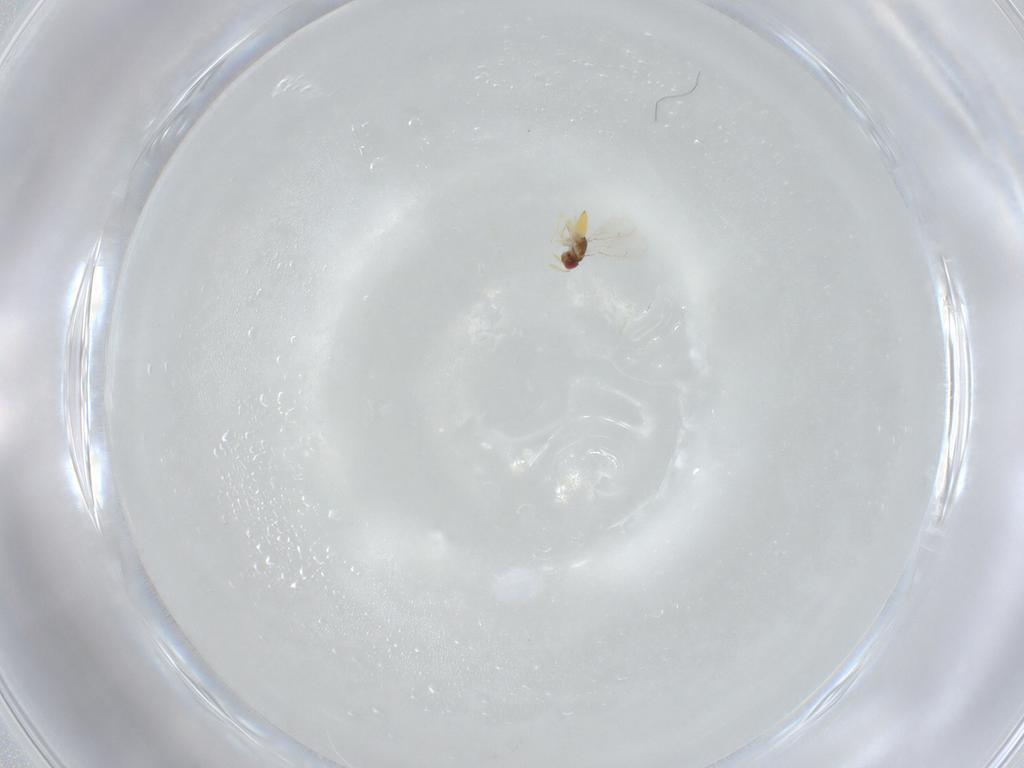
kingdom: Animalia
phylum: Arthropoda
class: Insecta
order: Hymenoptera
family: Eulophidae
